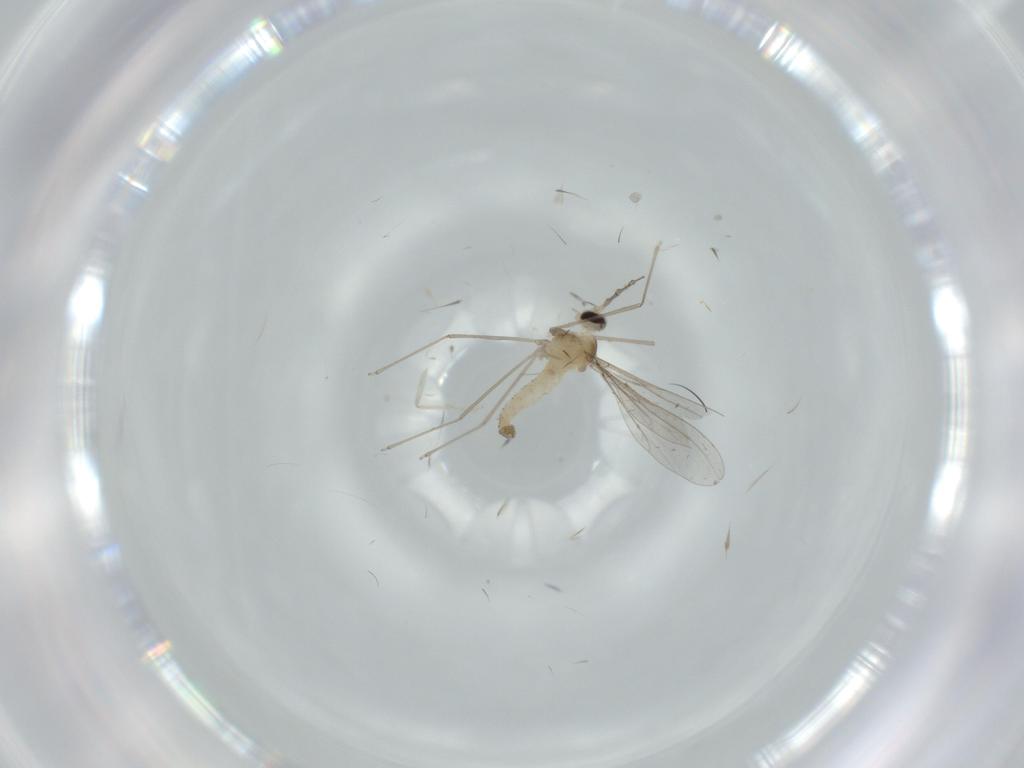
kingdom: Animalia
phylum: Arthropoda
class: Insecta
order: Diptera
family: Cecidomyiidae
